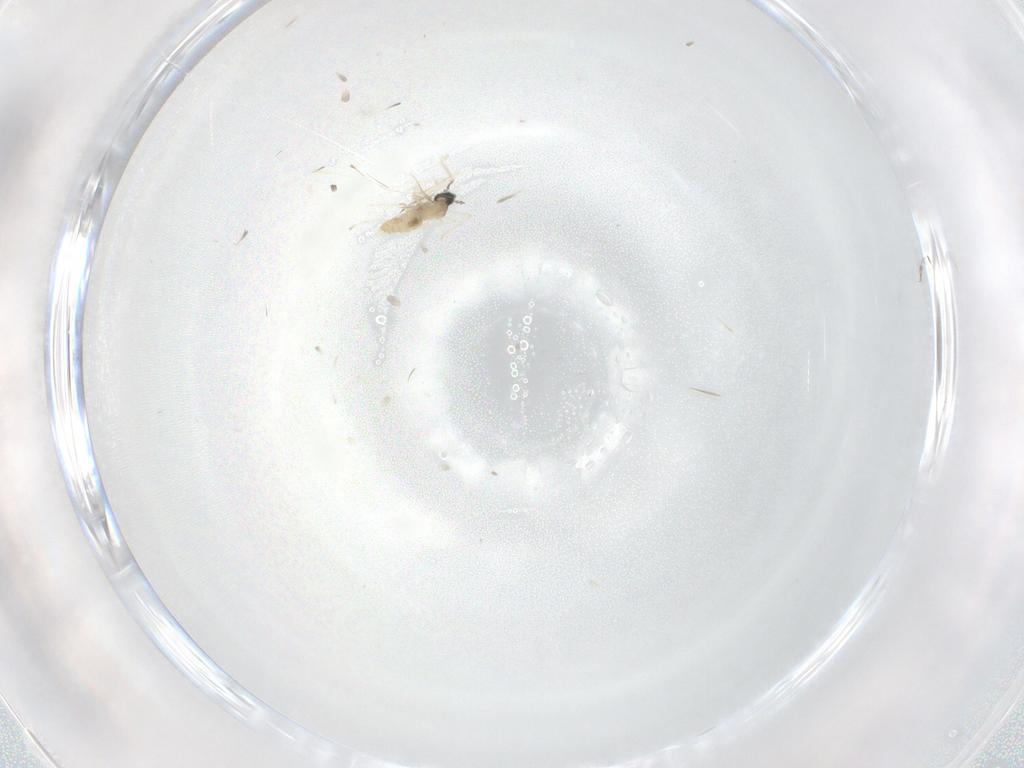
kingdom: Animalia
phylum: Arthropoda
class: Insecta
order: Diptera
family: Cecidomyiidae
